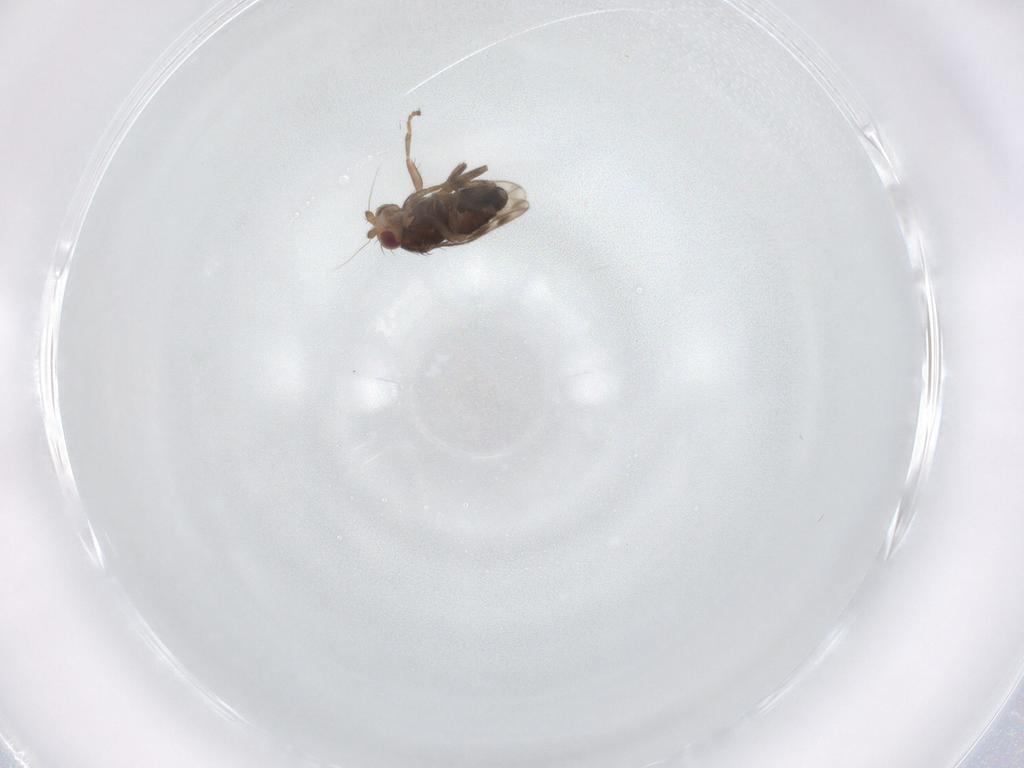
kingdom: Animalia
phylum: Arthropoda
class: Insecta
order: Diptera
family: Sphaeroceridae
